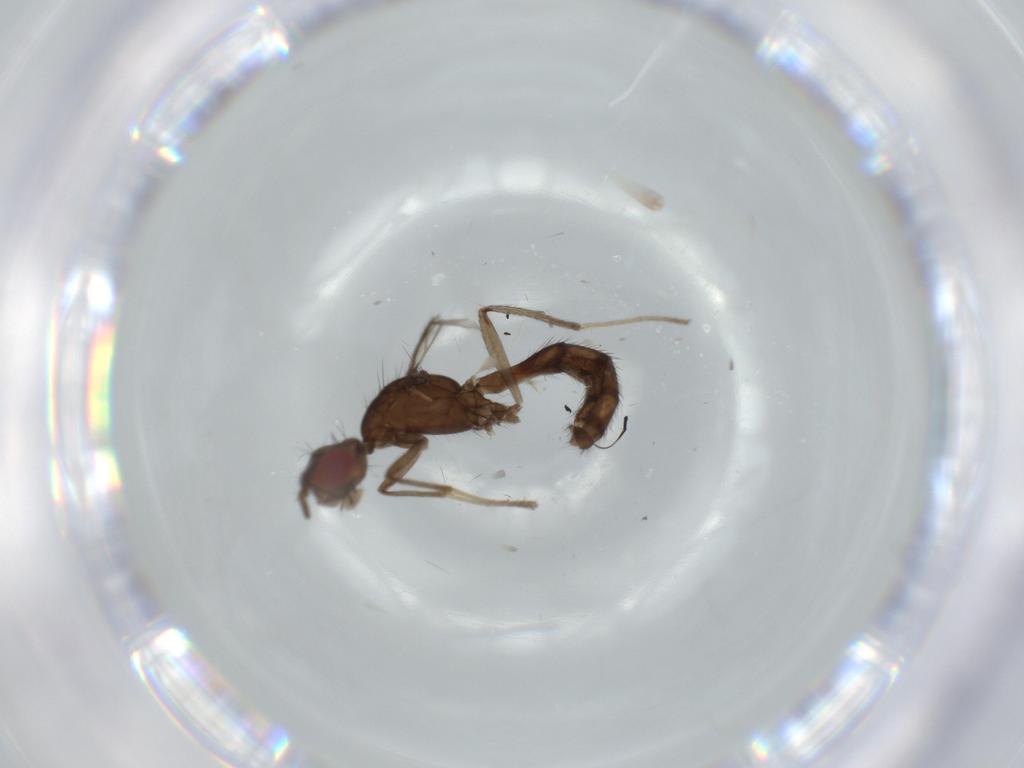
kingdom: Animalia
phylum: Arthropoda
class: Insecta
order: Diptera
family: Richardiidae
